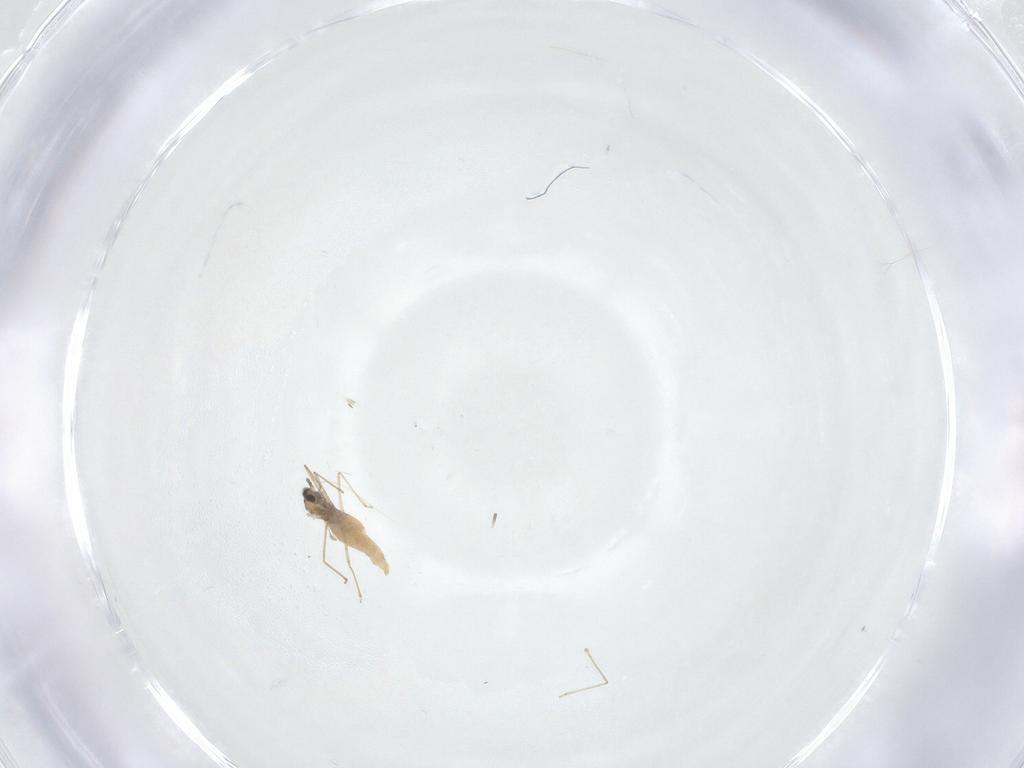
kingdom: Animalia
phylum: Arthropoda
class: Insecta
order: Diptera
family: Cecidomyiidae
